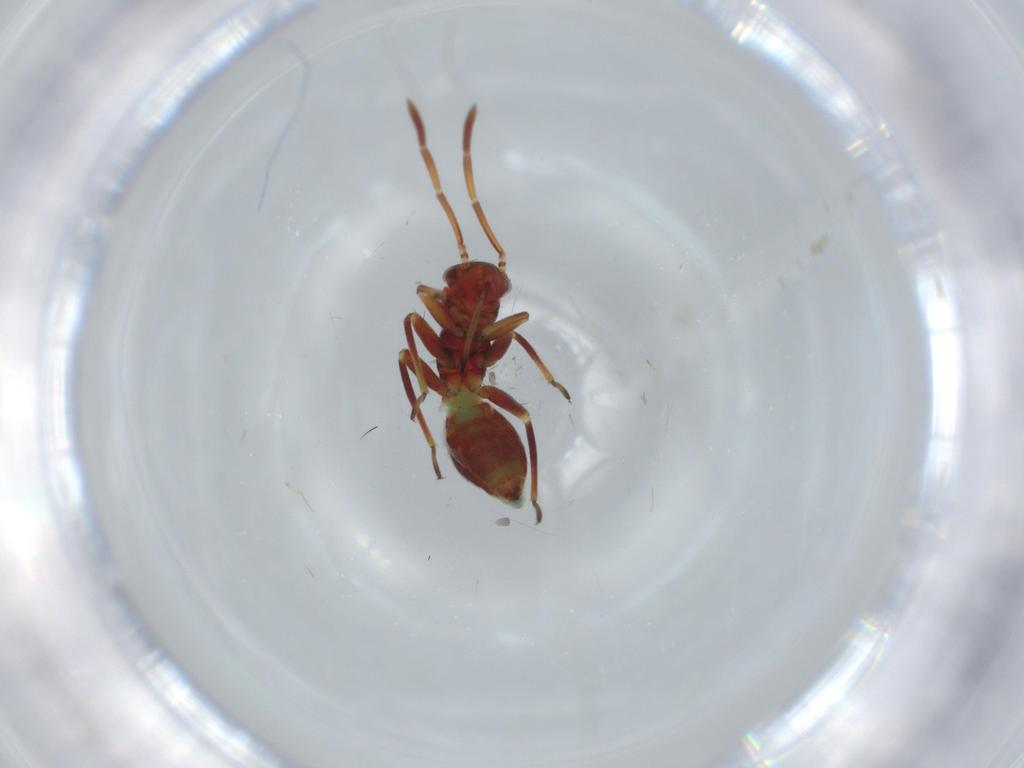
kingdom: Animalia
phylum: Arthropoda
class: Insecta
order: Hemiptera
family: Miridae
